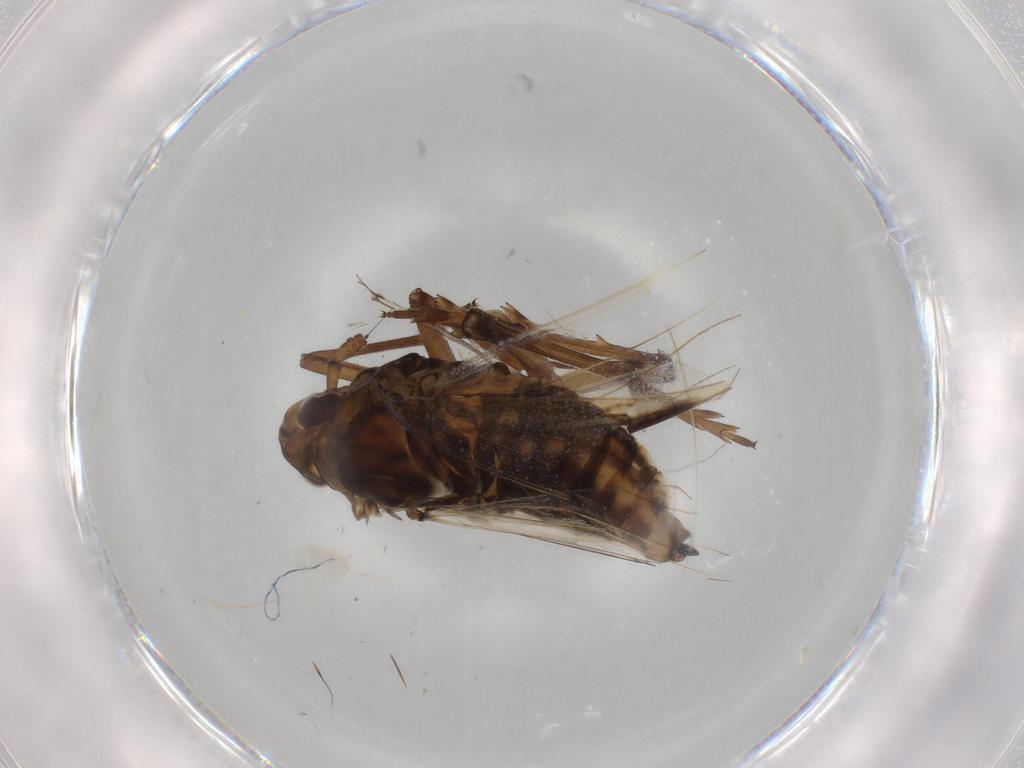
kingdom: Animalia
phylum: Arthropoda
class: Insecta
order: Hemiptera
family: Delphacidae
